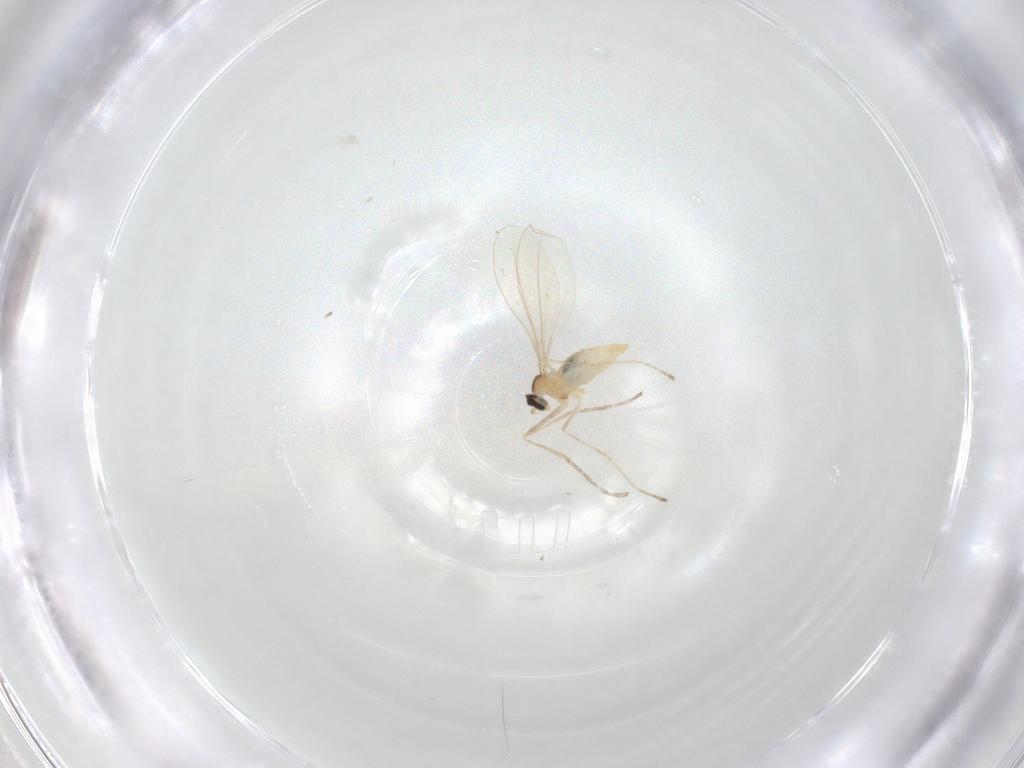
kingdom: Animalia
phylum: Arthropoda
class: Insecta
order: Diptera
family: Cecidomyiidae
